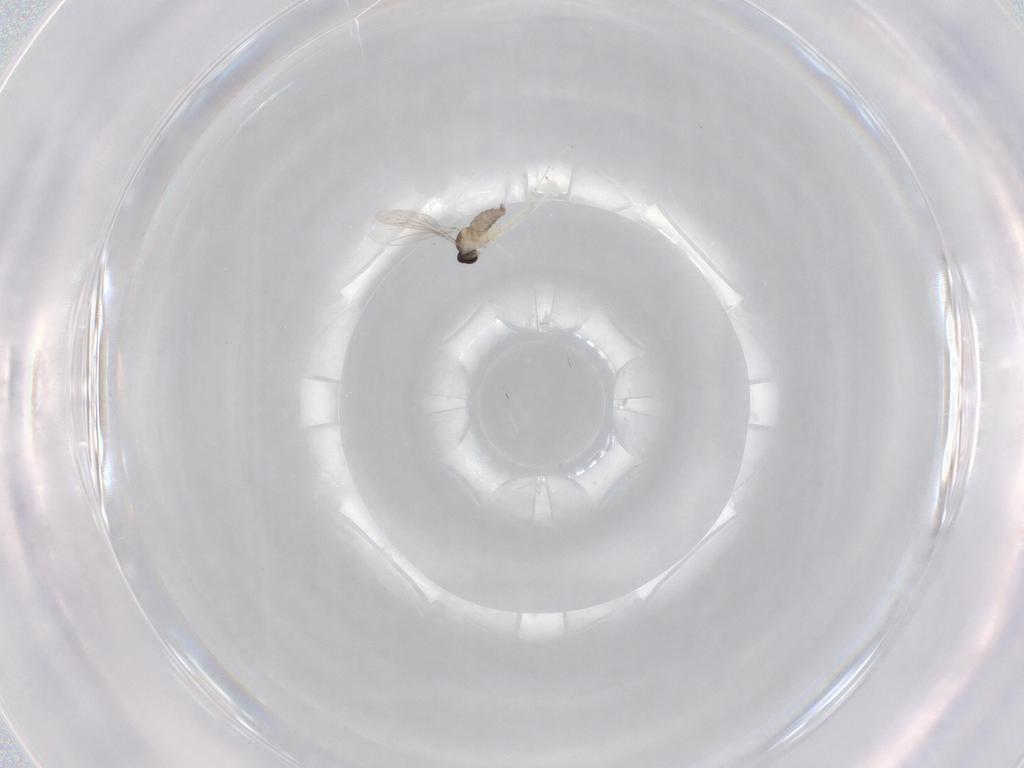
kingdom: Animalia
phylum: Arthropoda
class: Insecta
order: Diptera
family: Cecidomyiidae
